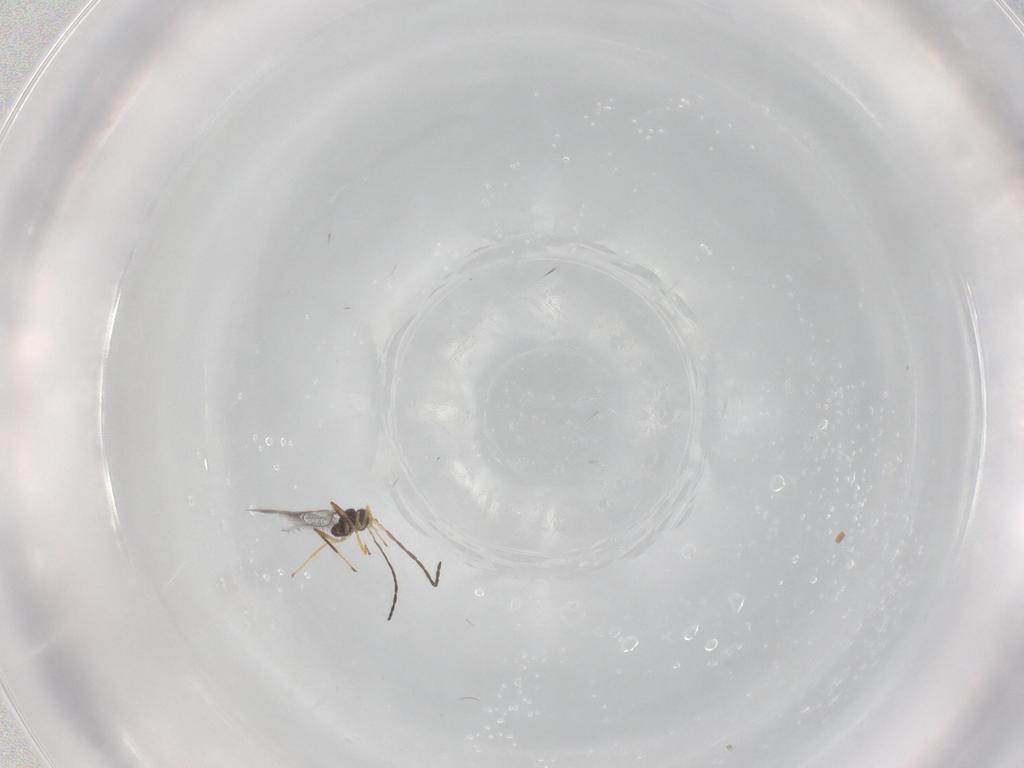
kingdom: Animalia
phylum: Arthropoda
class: Insecta
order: Hymenoptera
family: Mymaridae
